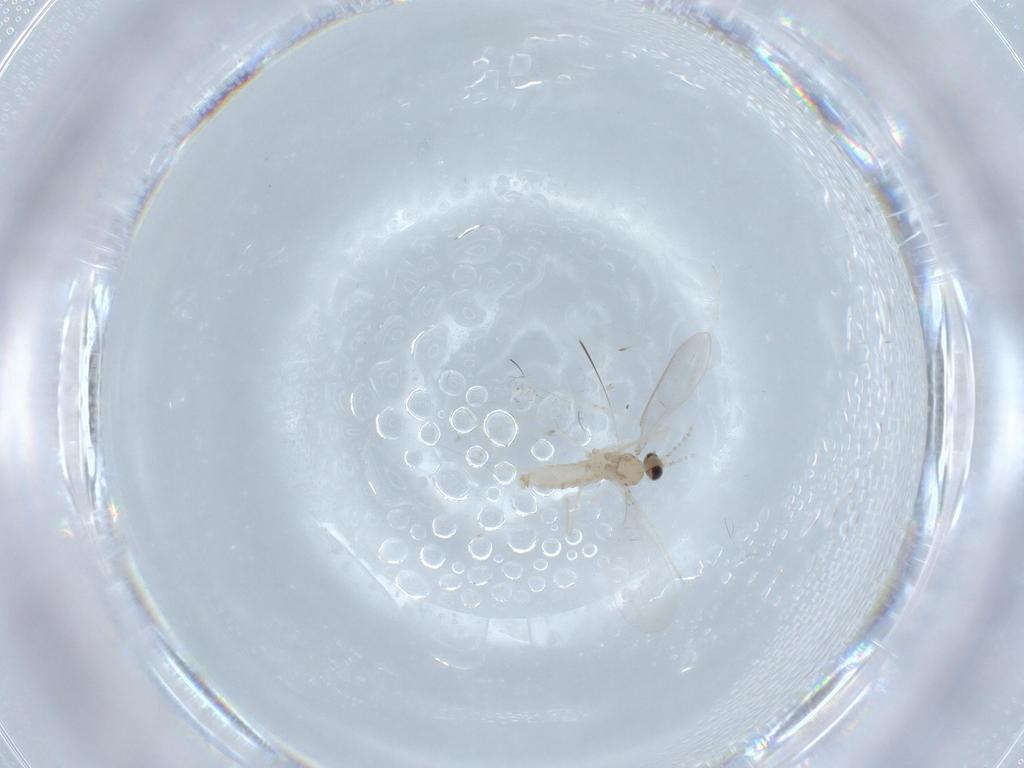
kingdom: Animalia
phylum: Arthropoda
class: Insecta
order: Diptera
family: Cecidomyiidae
